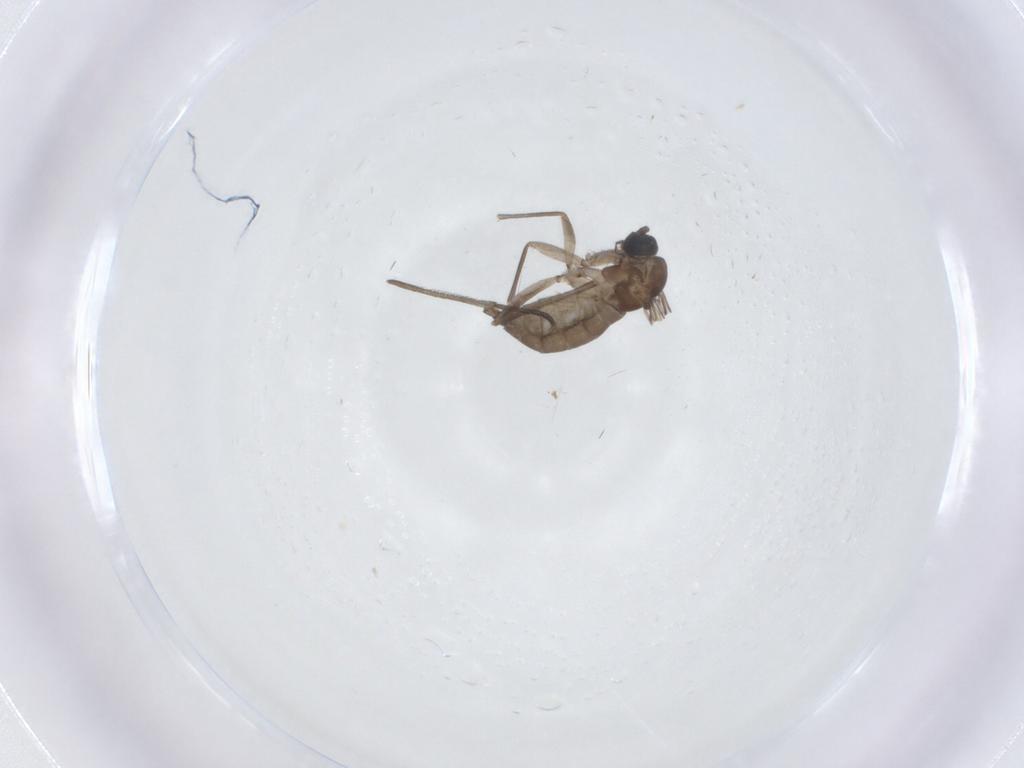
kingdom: Animalia
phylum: Arthropoda
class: Insecta
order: Diptera
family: Sciaridae
